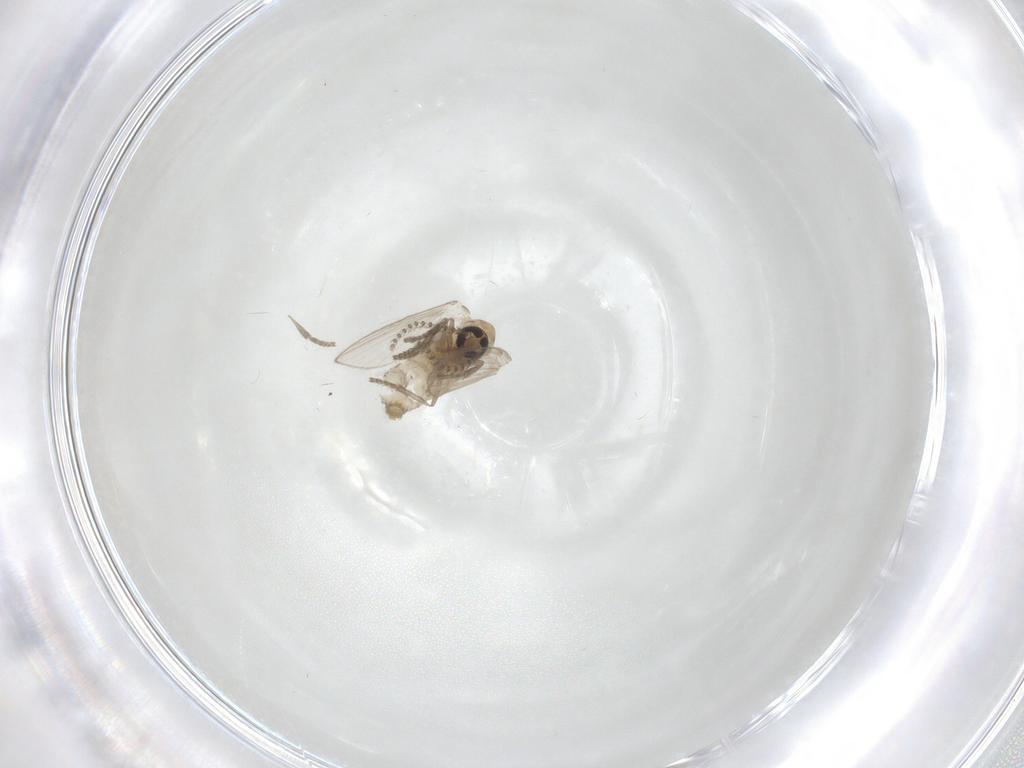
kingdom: Animalia
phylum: Arthropoda
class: Insecta
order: Diptera
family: Psychodidae
